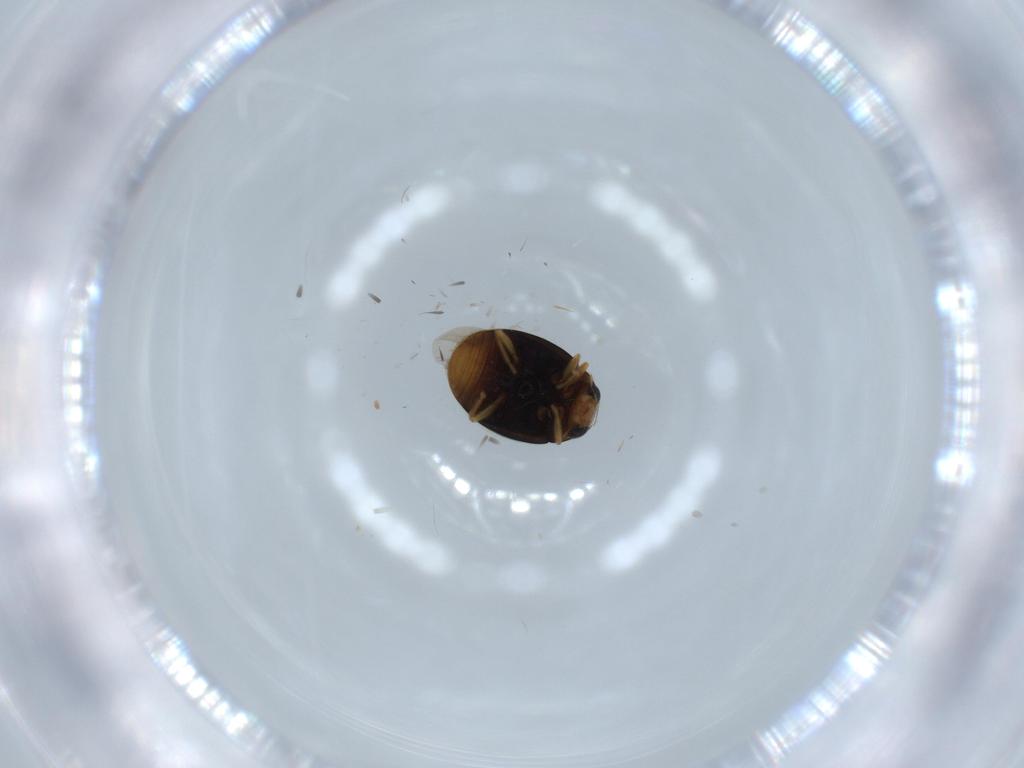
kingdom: Animalia
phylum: Arthropoda
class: Insecta
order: Coleoptera
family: Coccinellidae
